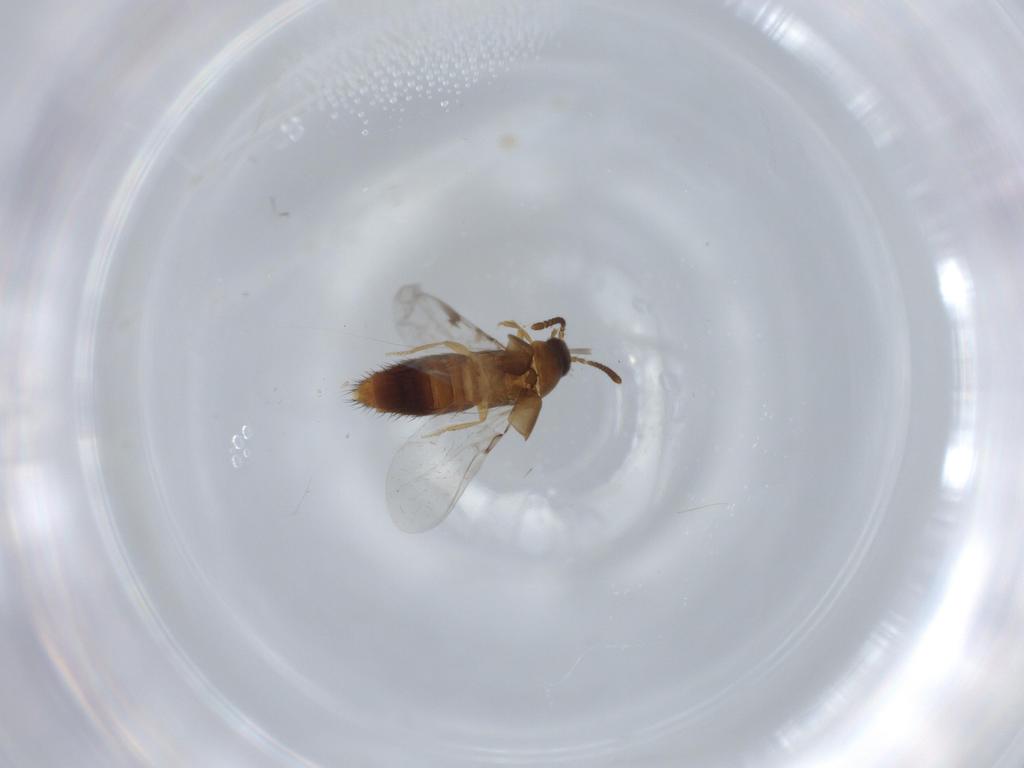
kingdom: Animalia
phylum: Arthropoda
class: Insecta
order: Coleoptera
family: Staphylinidae
